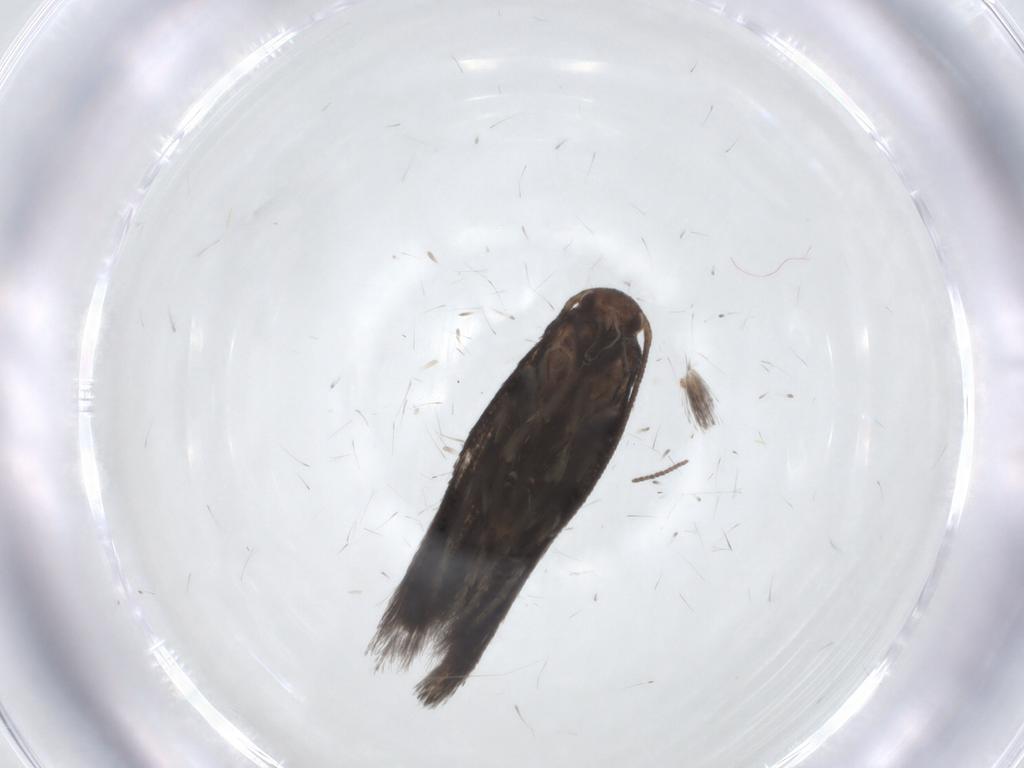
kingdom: Animalia
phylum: Arthropoda
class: Insecta
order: Lepidoptera
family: Elachistidae
